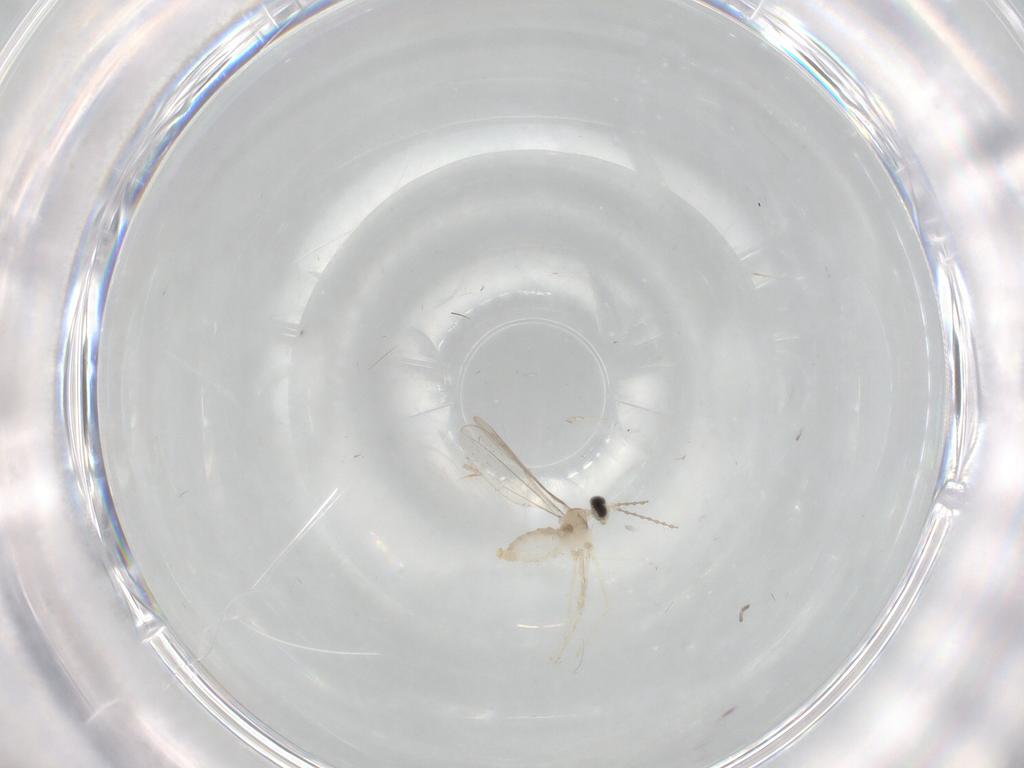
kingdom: Animalia
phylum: Arthropoda
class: Insecta
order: Diptera
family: Cecidomyiidae
